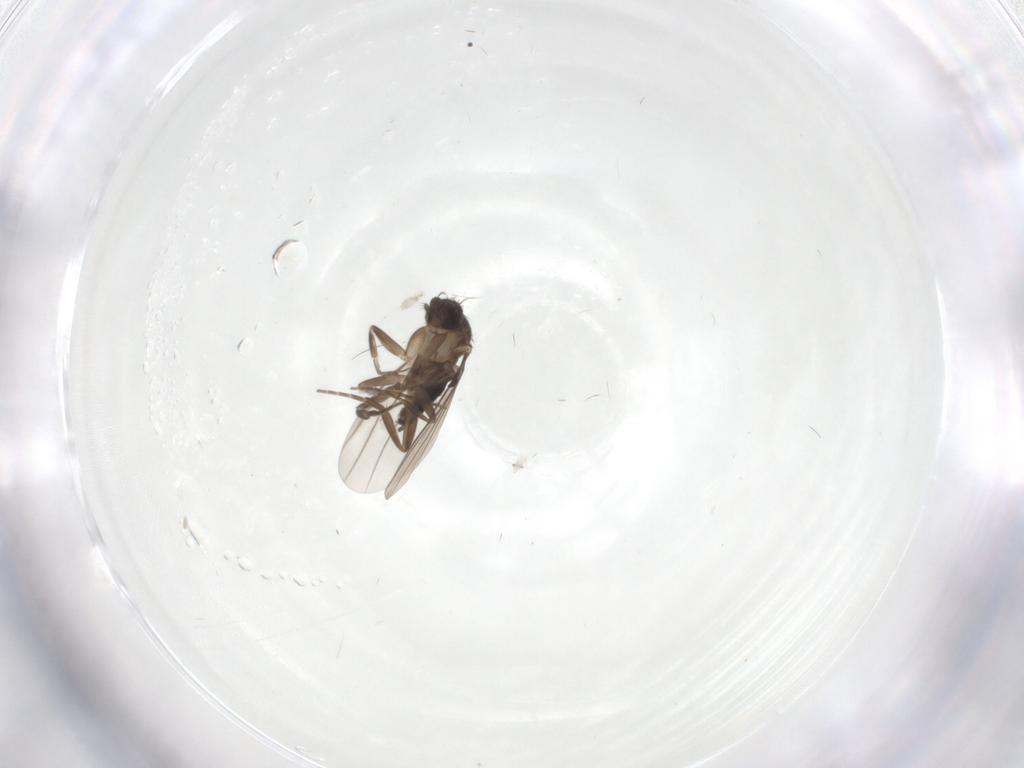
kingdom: Animalia
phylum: Arthropoda
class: Insecta
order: Diptera
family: Phoridae
